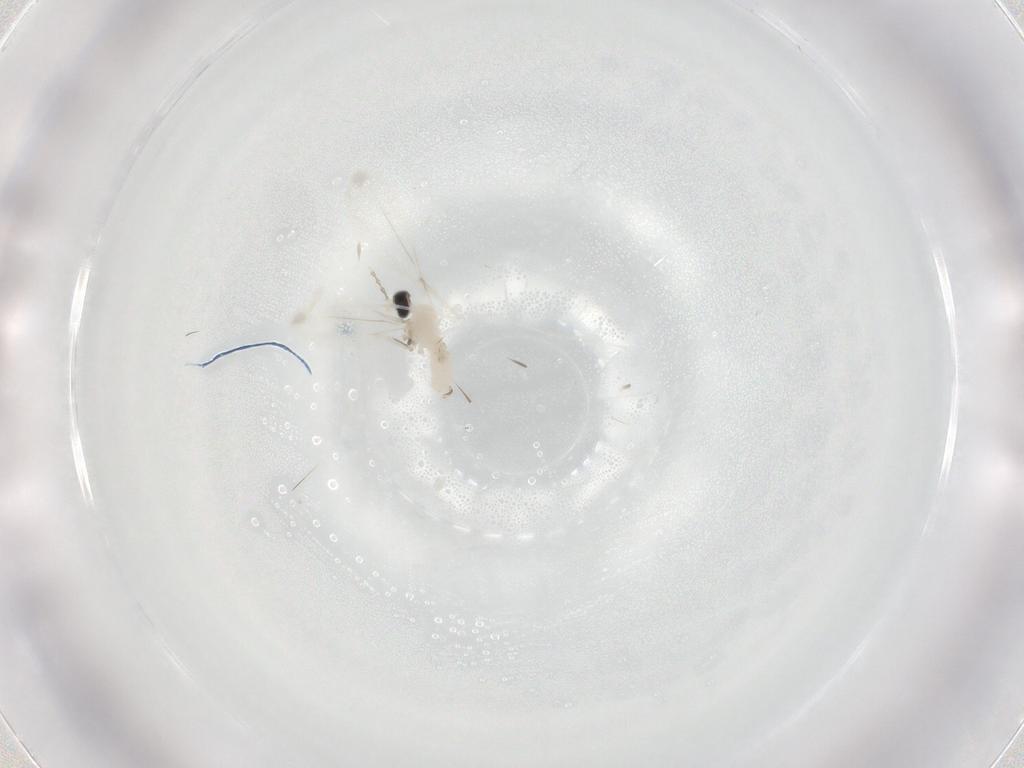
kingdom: Animalia
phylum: Arthropoda
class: Insecta
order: Diptera
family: Cecidomyiidae
